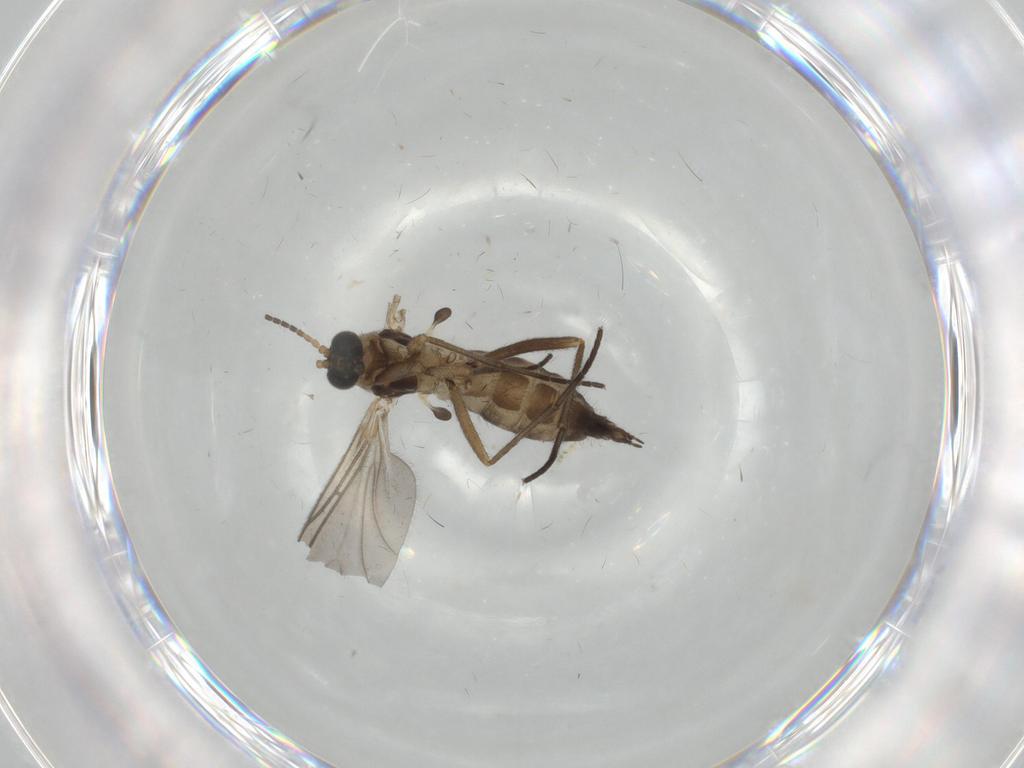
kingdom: Animalia
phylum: Arthropoda
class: Insecta
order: Diptera
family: Sciaridae
